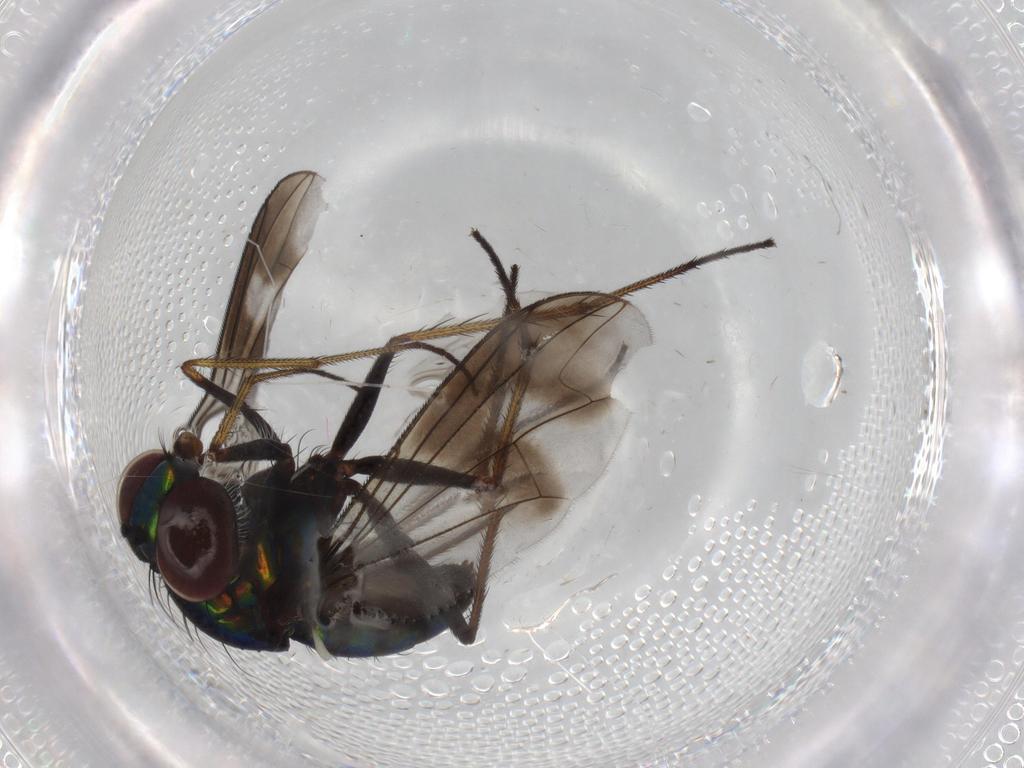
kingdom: Animalia
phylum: Arthropoda
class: Insecta
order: Diptera
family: Dolichopodidae
